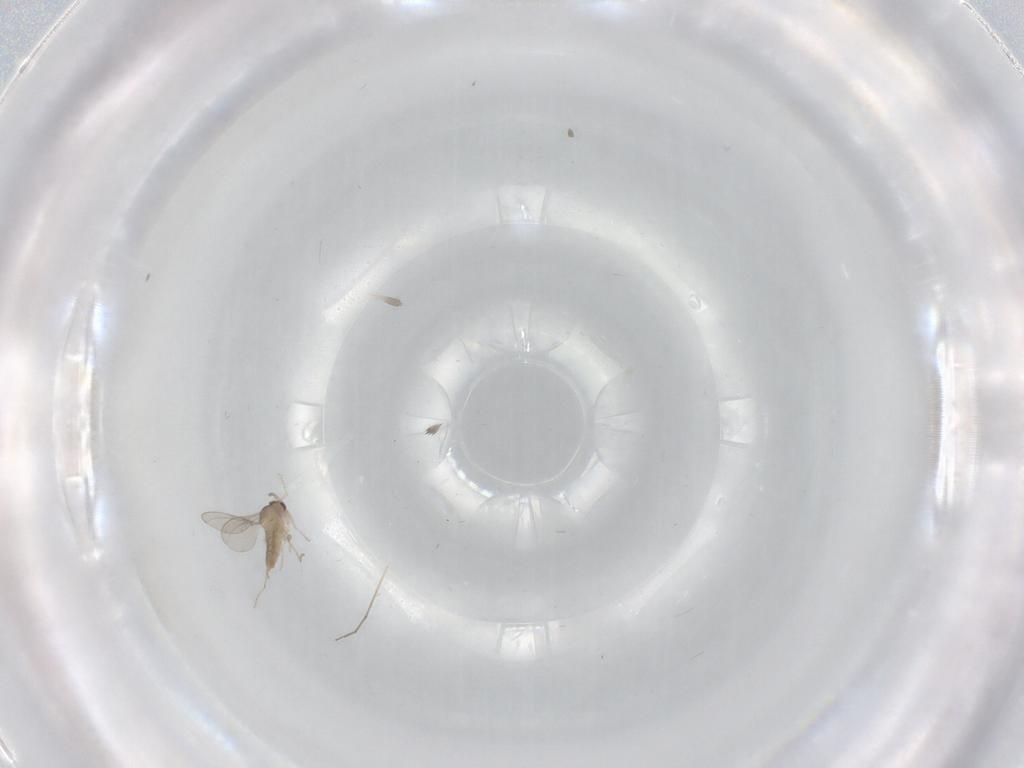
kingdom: Animalia
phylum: Arthropoda
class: Insecta
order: Diptera
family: Cecidomyiidae
